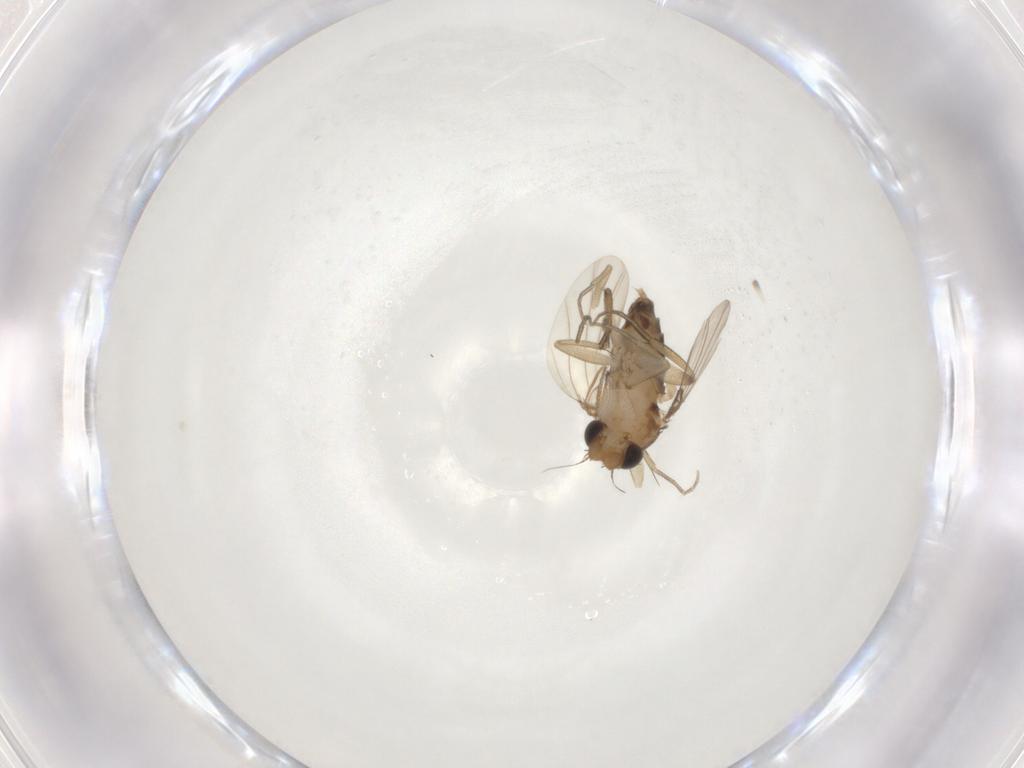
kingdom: Animalia
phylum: Arthropoda
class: Insecta
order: Diptera
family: Phoridae
